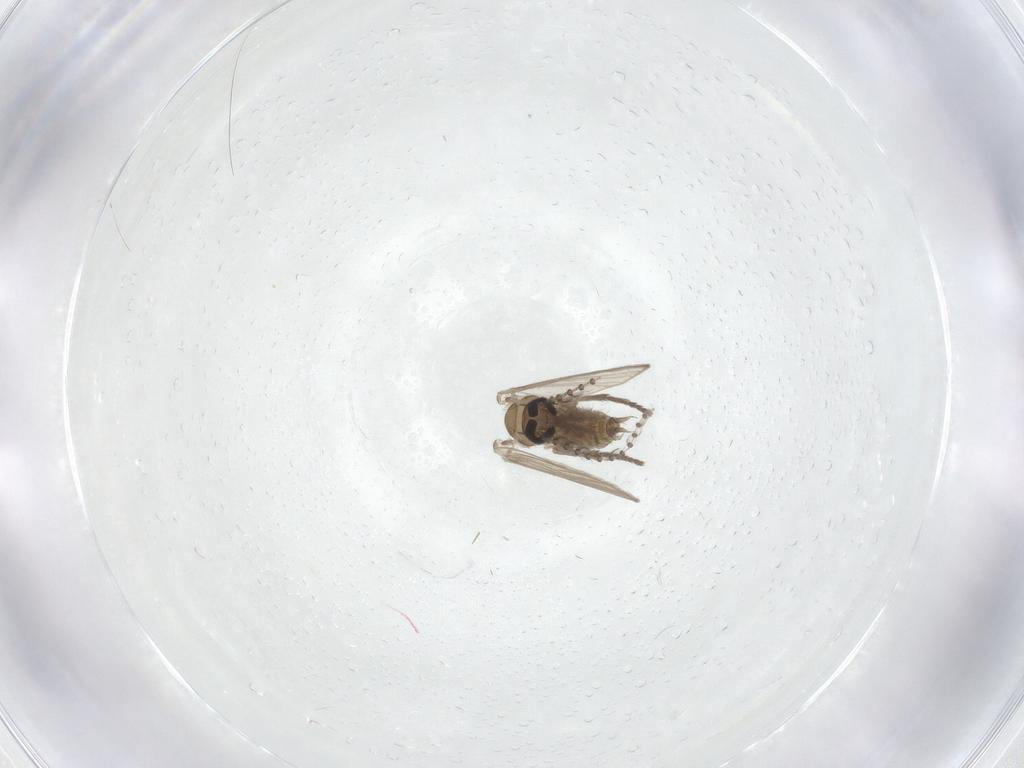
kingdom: Animalia
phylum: Arthropoda
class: Insecta
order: Diptera
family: Psychodidae
